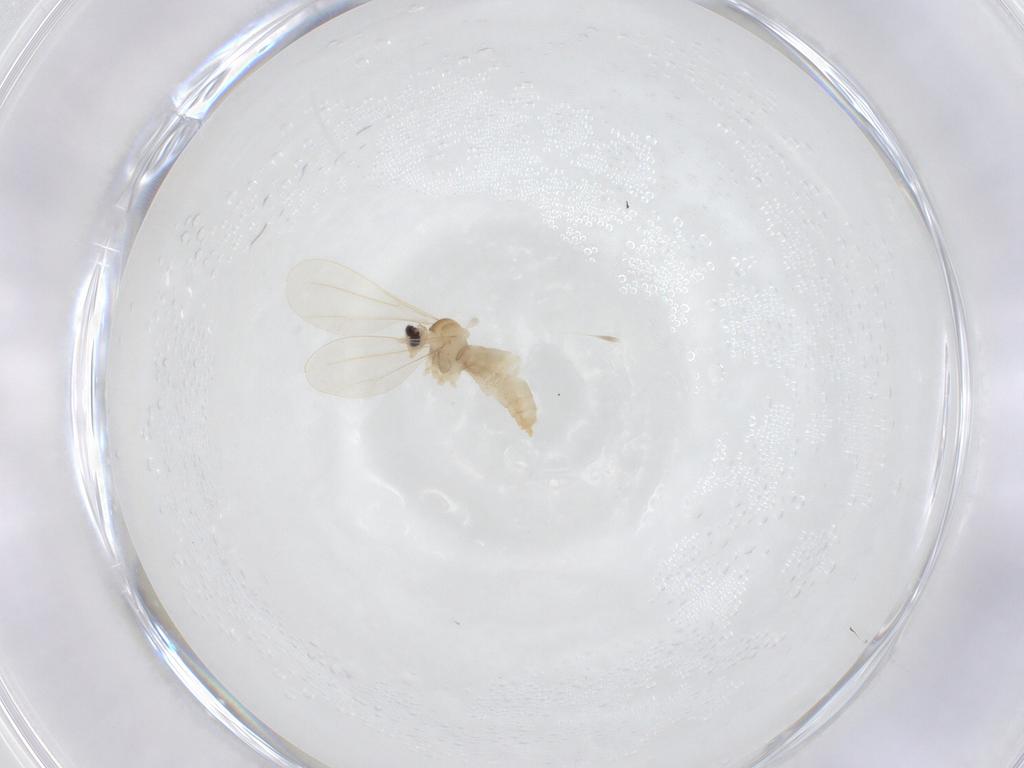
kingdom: Animalia
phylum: Arthropoda
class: Insecta
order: Diptera
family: Cecidomyiidae
